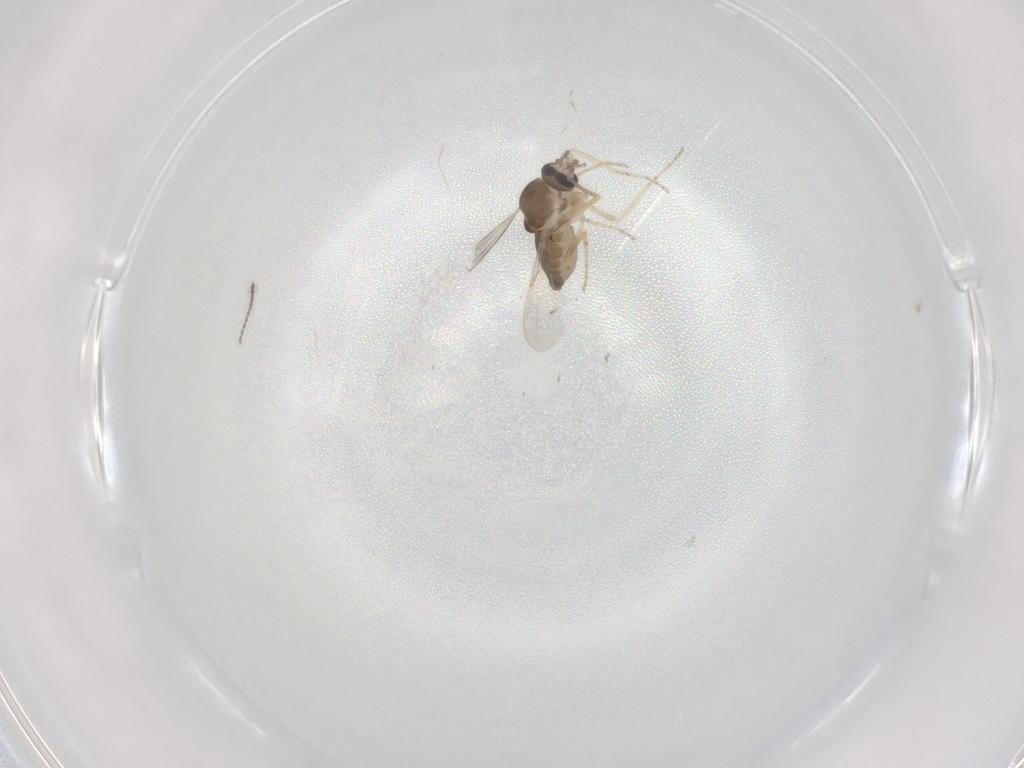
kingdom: Animalia
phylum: Arthropoda
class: Insecta
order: Diptera
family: Ceratopogonidae
